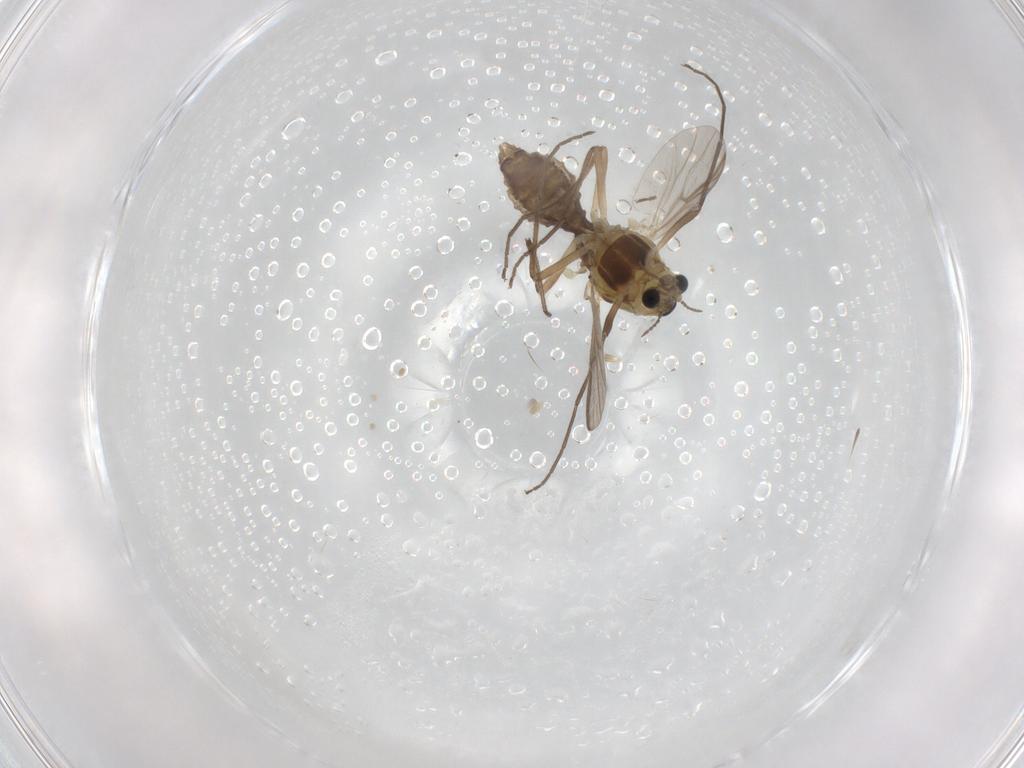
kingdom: Animalia
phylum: Arthropoda
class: Insecta
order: Diptera
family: Chironomidae
